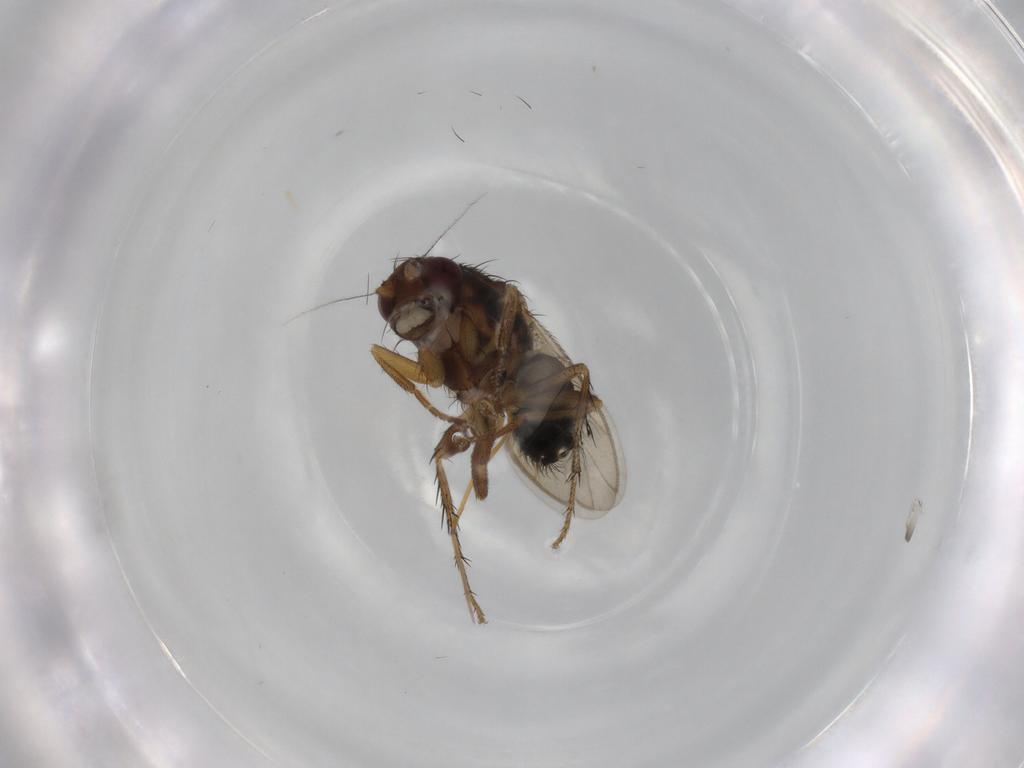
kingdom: Animalia
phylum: Arthropoda
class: Insecta
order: Diptera
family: Sphaeroceridae
